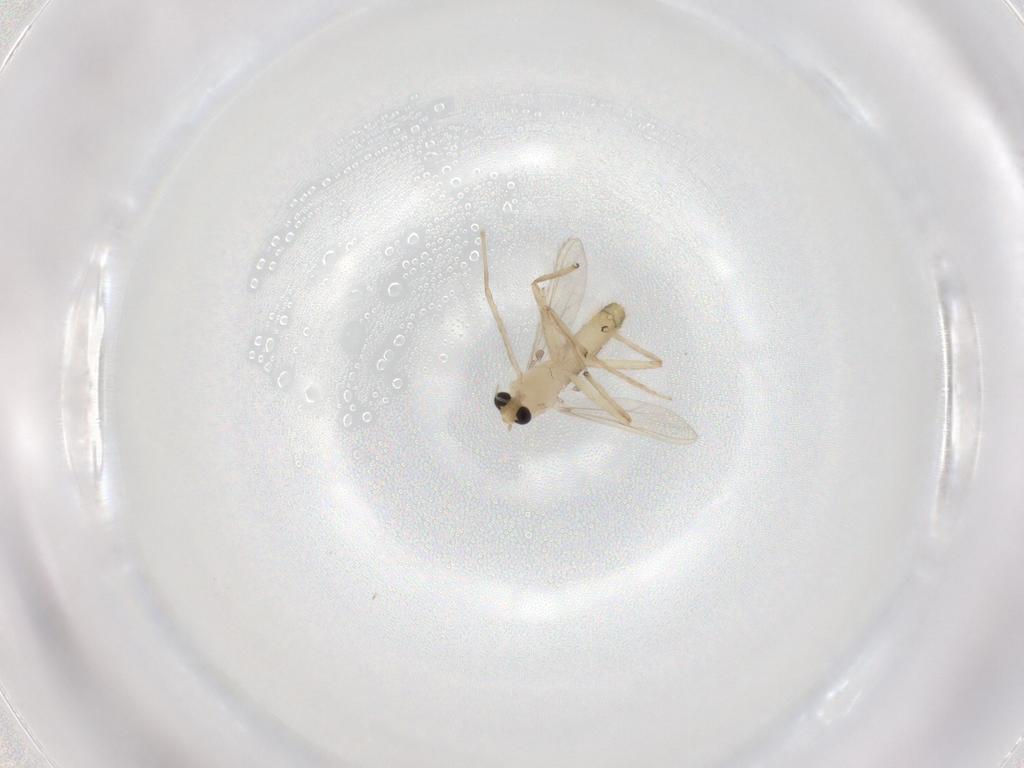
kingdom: Animalia
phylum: Arthropoda
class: Insecta
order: Diptera
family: Chironomidae
